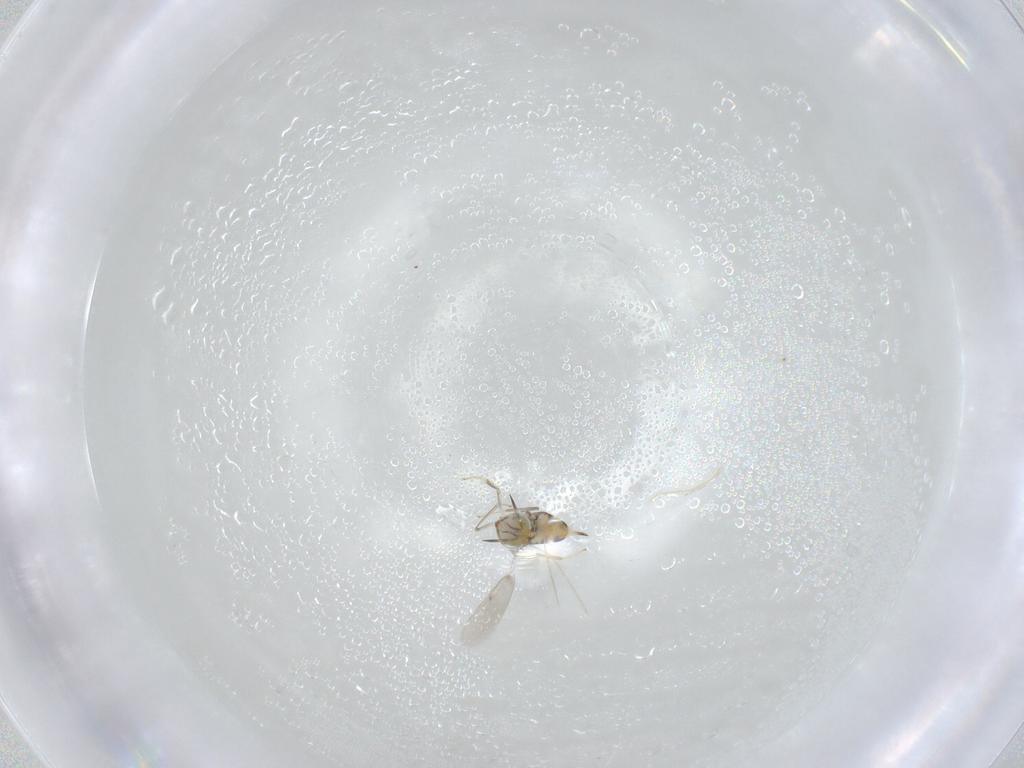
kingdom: Animalia
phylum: Arthropoda
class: Insecta
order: Hymenoptera
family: Aphelinidae
